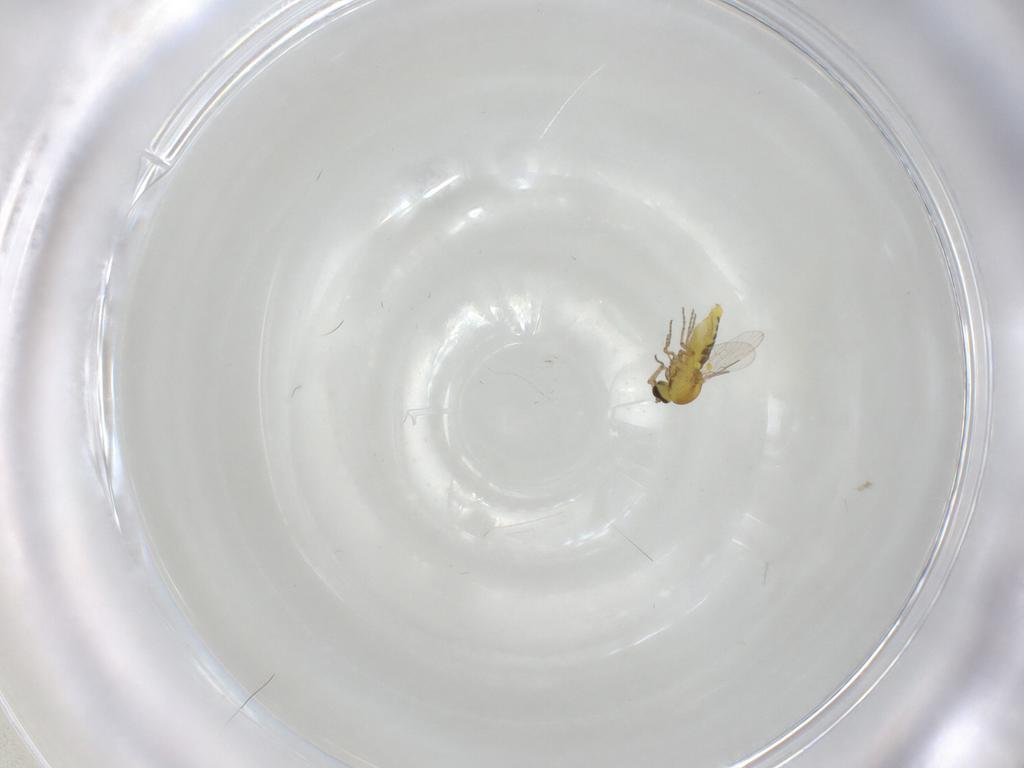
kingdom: Animalia
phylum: Arthropoda
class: Insecta
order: Diptera
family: Ceratopogonidae
